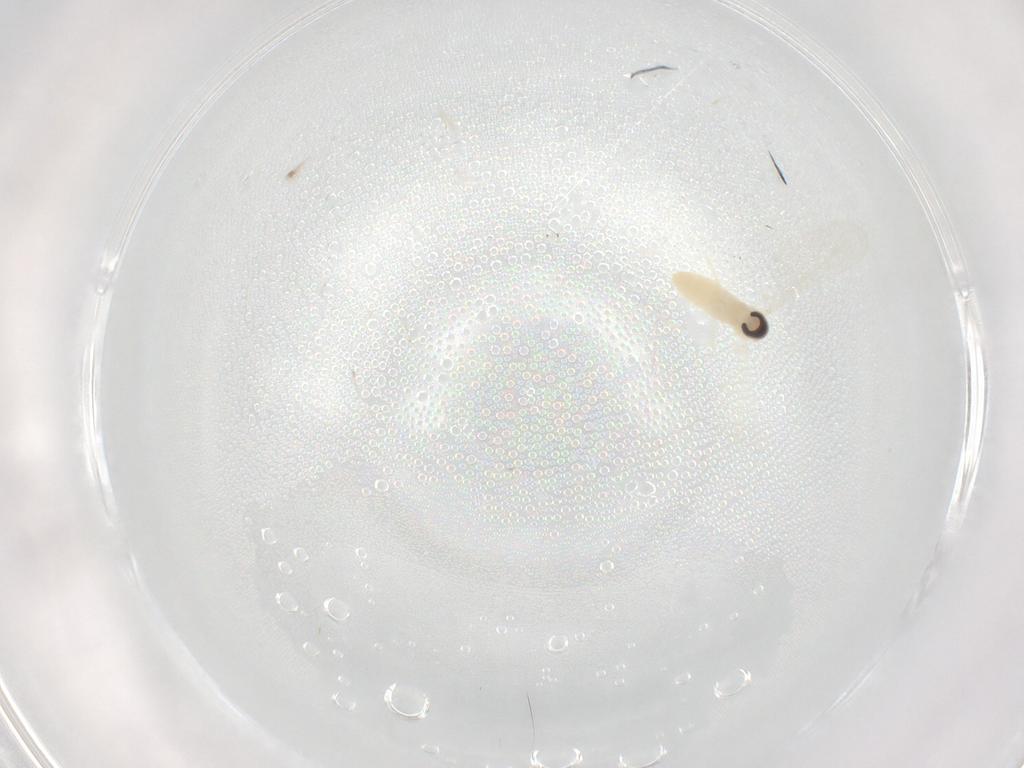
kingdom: Animalia
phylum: Arthropoda
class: Insecta
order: Diptera
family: Cecidomyiidae
